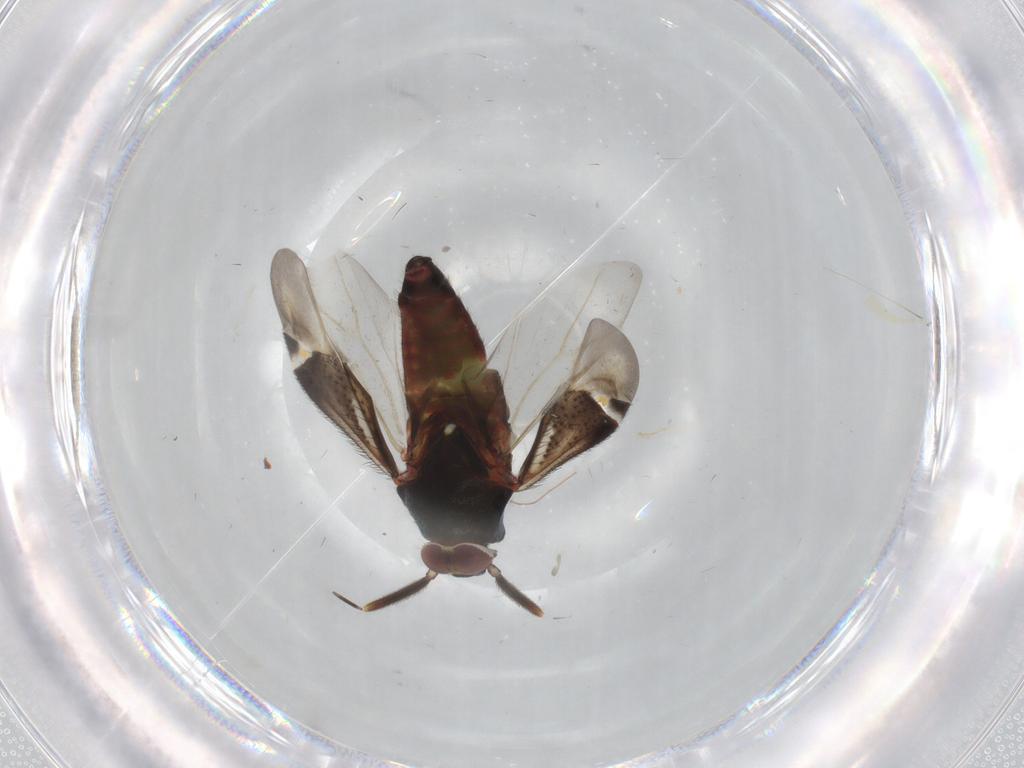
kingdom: Animalia
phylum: Arthropoda
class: Insecta
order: Hemiptera
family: Miridae
